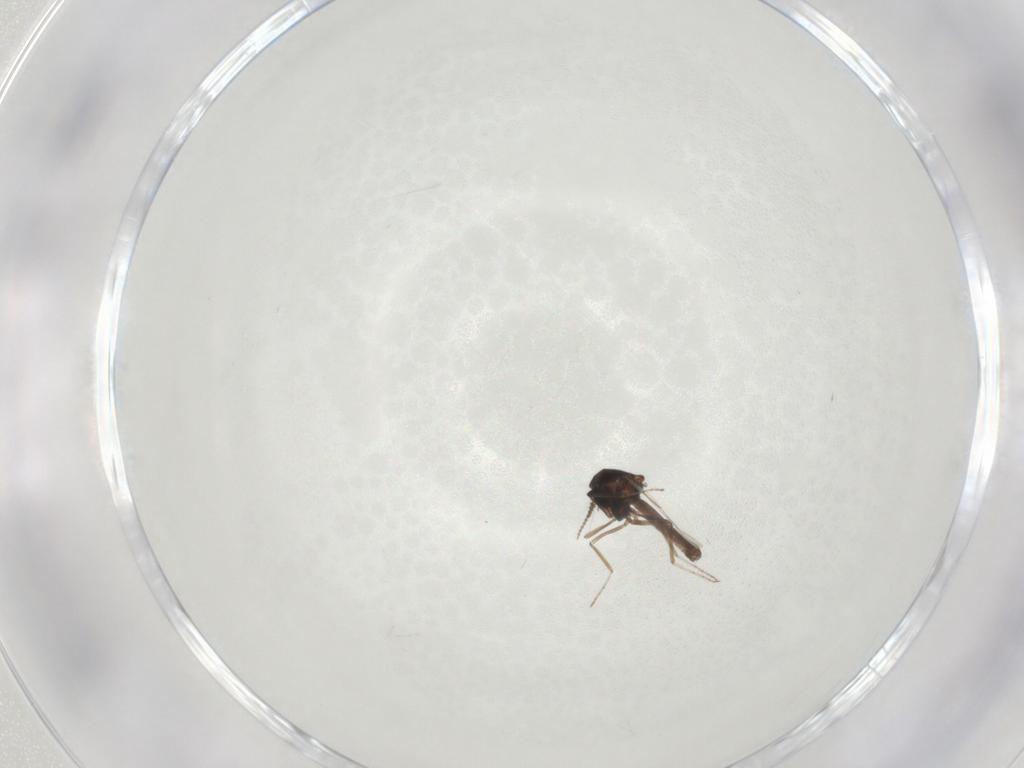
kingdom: Animalia
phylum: Arthropoda
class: Insecta
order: Diptera
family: Ceratopogonidae
